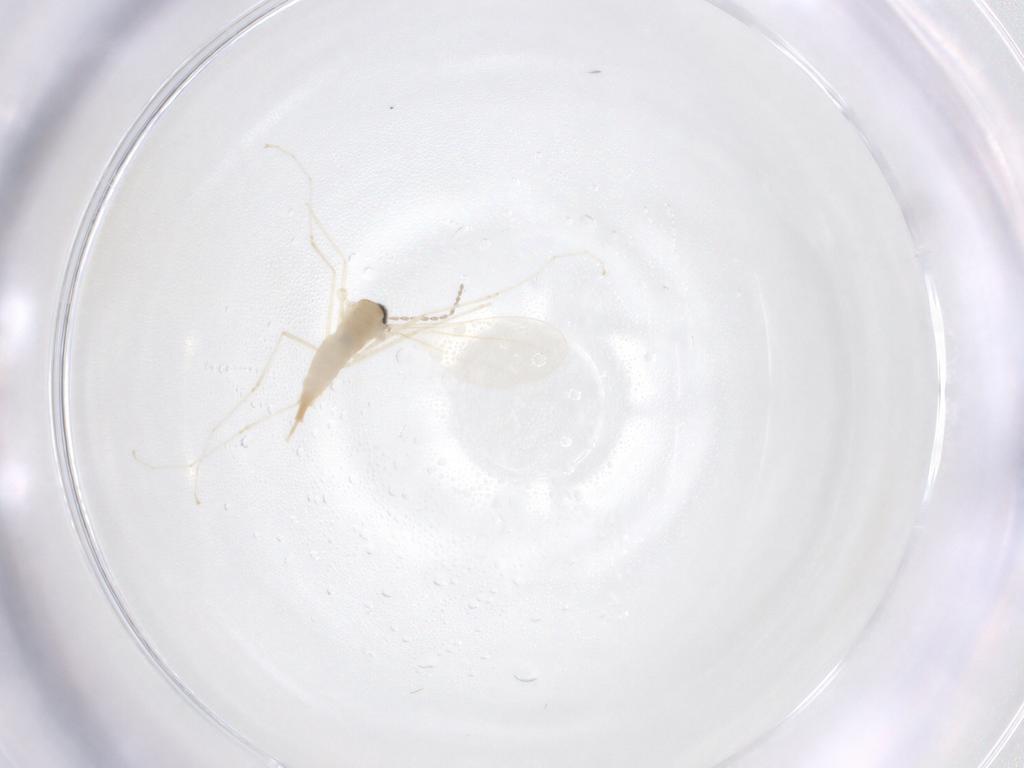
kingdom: Animalia
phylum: Arthropoda
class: Insecta
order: Diptera
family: Cecidomyiidae
